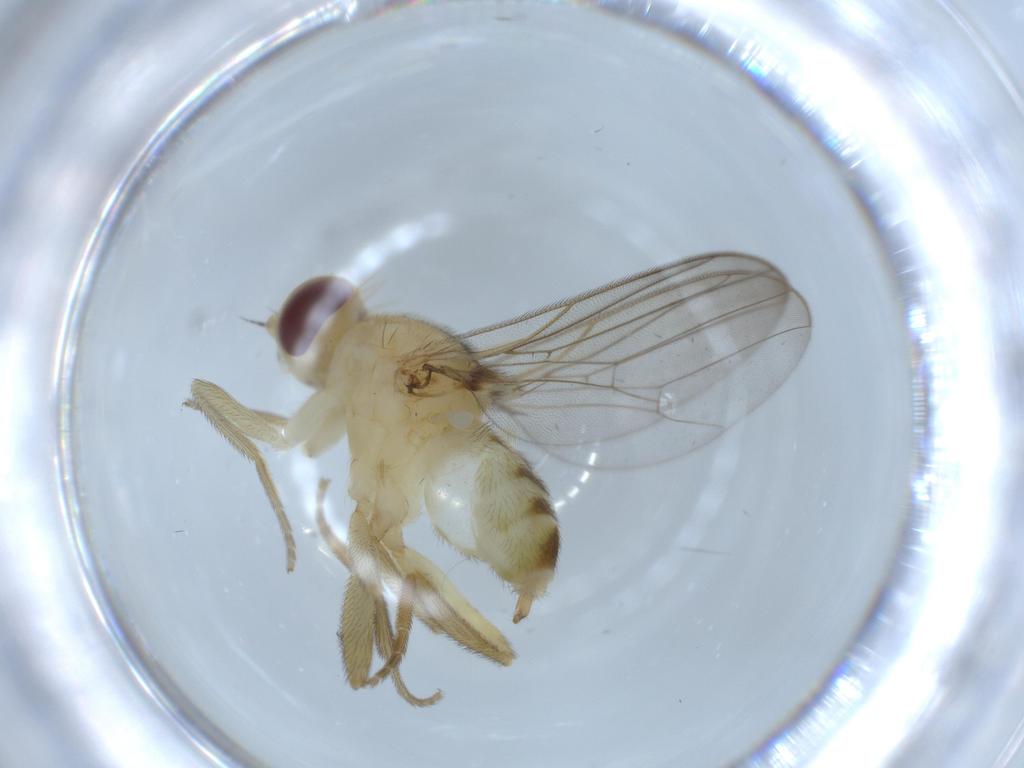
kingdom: Animalia
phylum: Arthropoda
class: Insecta
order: Diptera
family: Chloropidae
